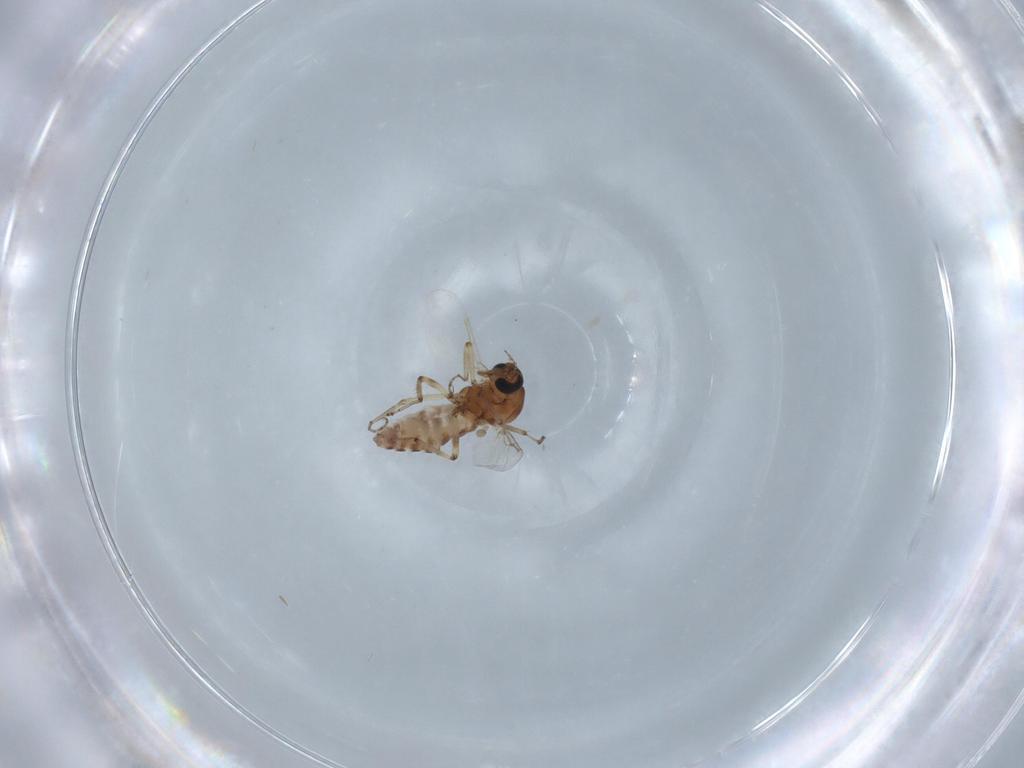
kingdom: Animalia
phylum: Arthropoda
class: Insecta
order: Diptera
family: Ceratopogonidae
